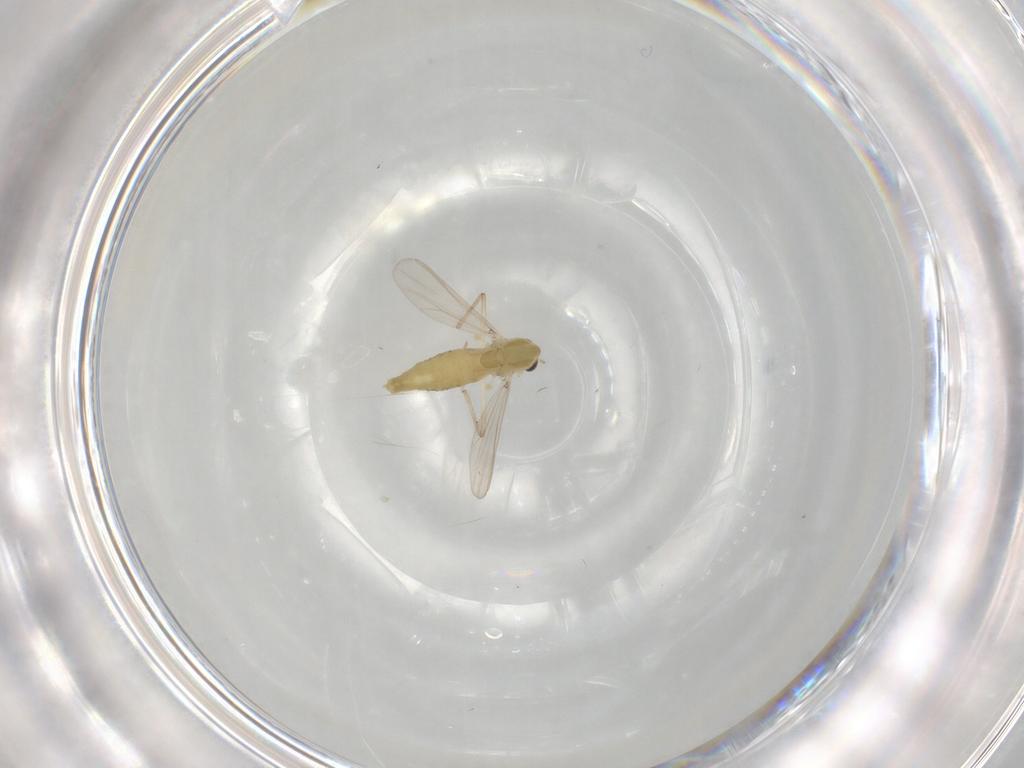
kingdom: Animalia
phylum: Arthropoda
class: Insecta
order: Diptera
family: Chironomidae
